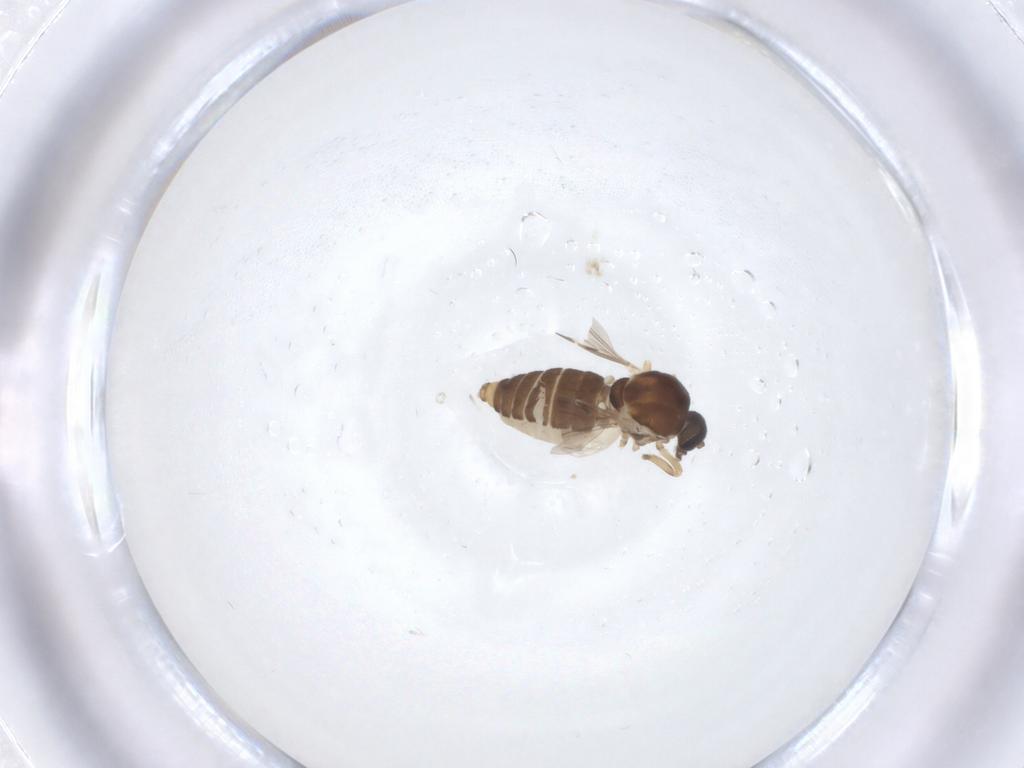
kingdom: Animalia
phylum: Arthropoda
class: Insecta
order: Diptera
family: Ceratopogonidae
